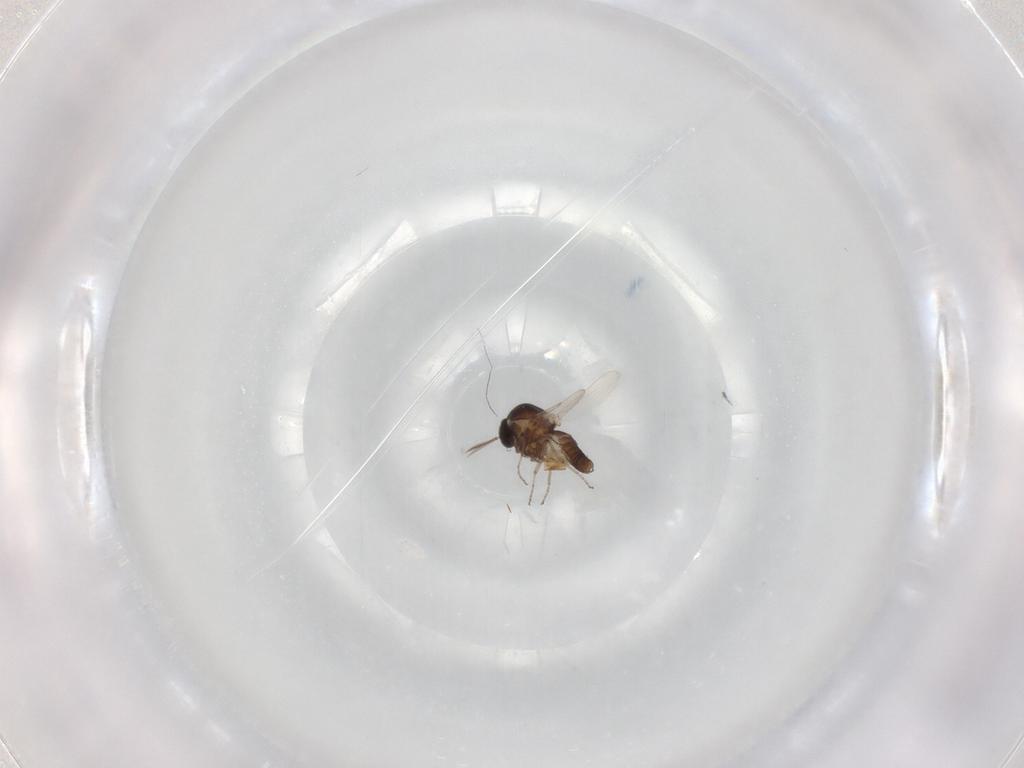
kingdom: Animalia
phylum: Arthropoda
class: Insecta
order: Diptera
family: Ceratopogonidae
